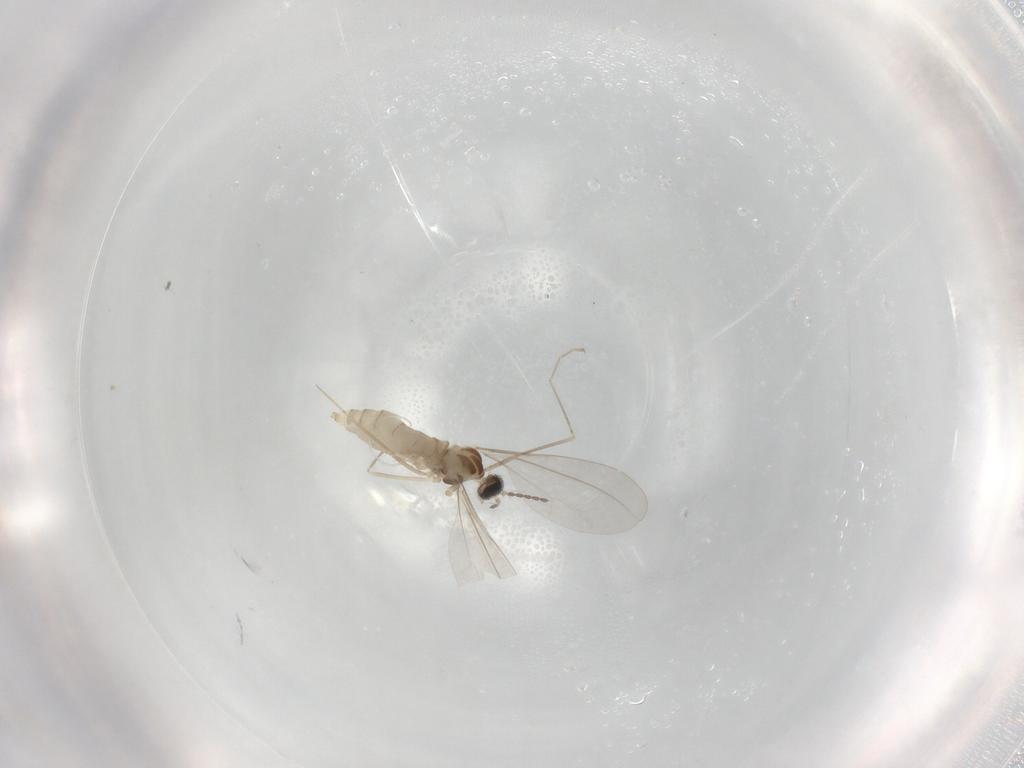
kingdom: Animalia
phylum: Arthropoda
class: Insecta
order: Diptera
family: Cecidomyiidae
